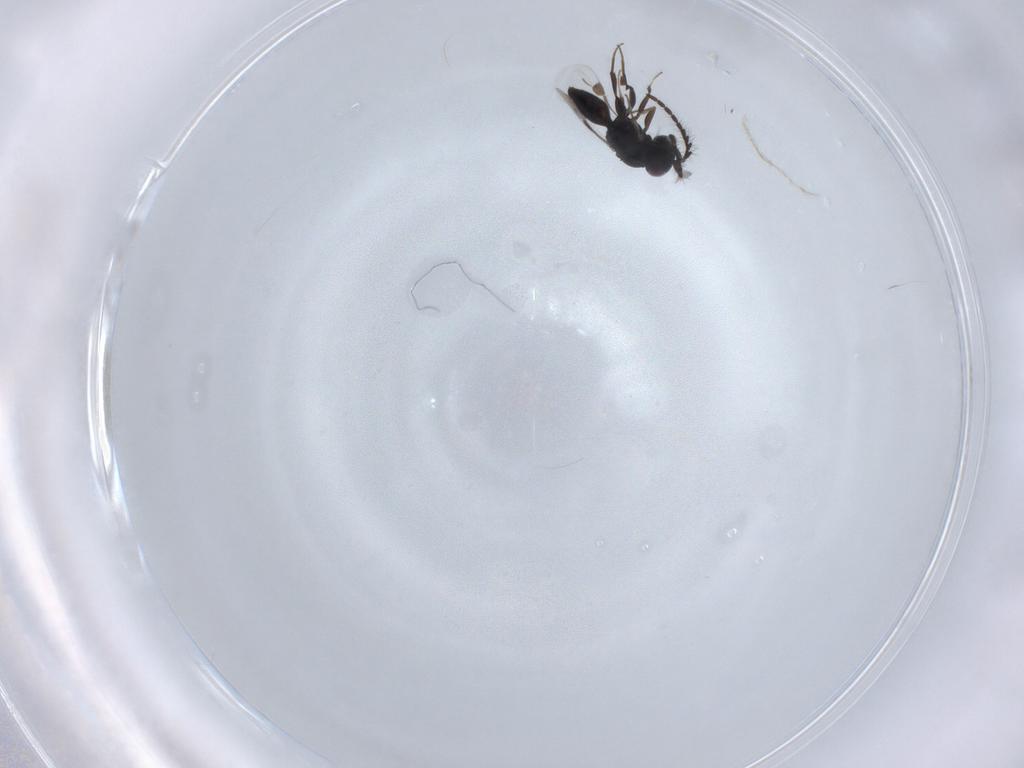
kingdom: Animalia
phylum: Arthropoda
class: Insecta
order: Hymenoptera
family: Megaspilidae
